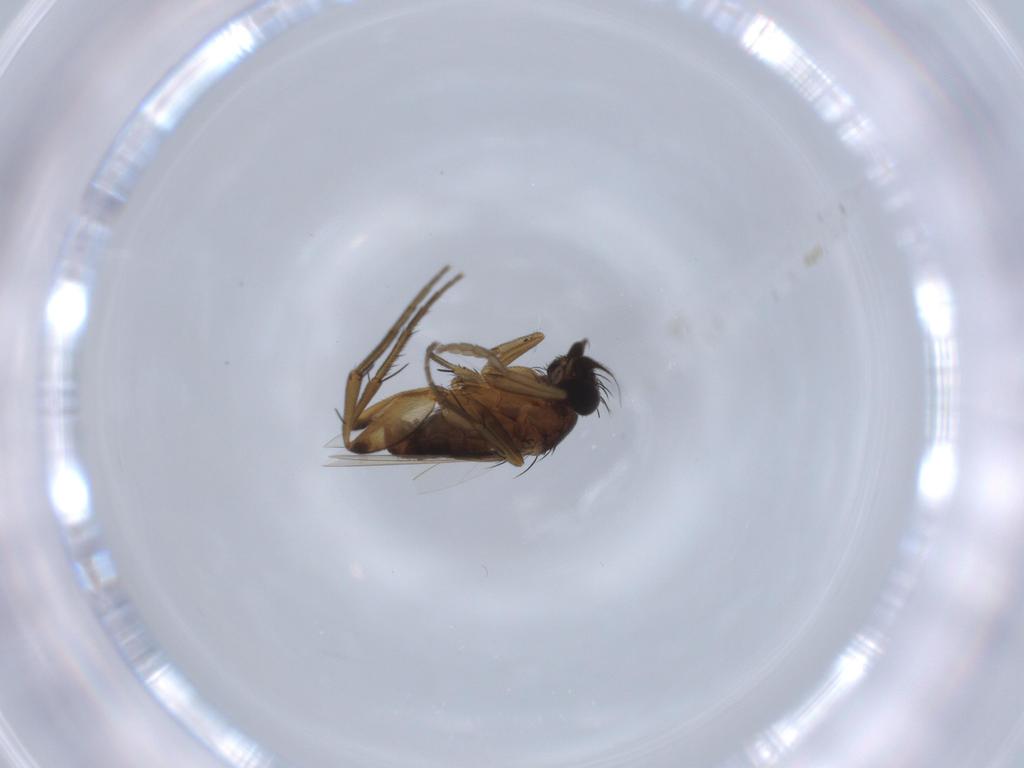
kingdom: Animalia
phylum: Arthropoda
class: Insecta
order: Diptera
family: Phoridae
